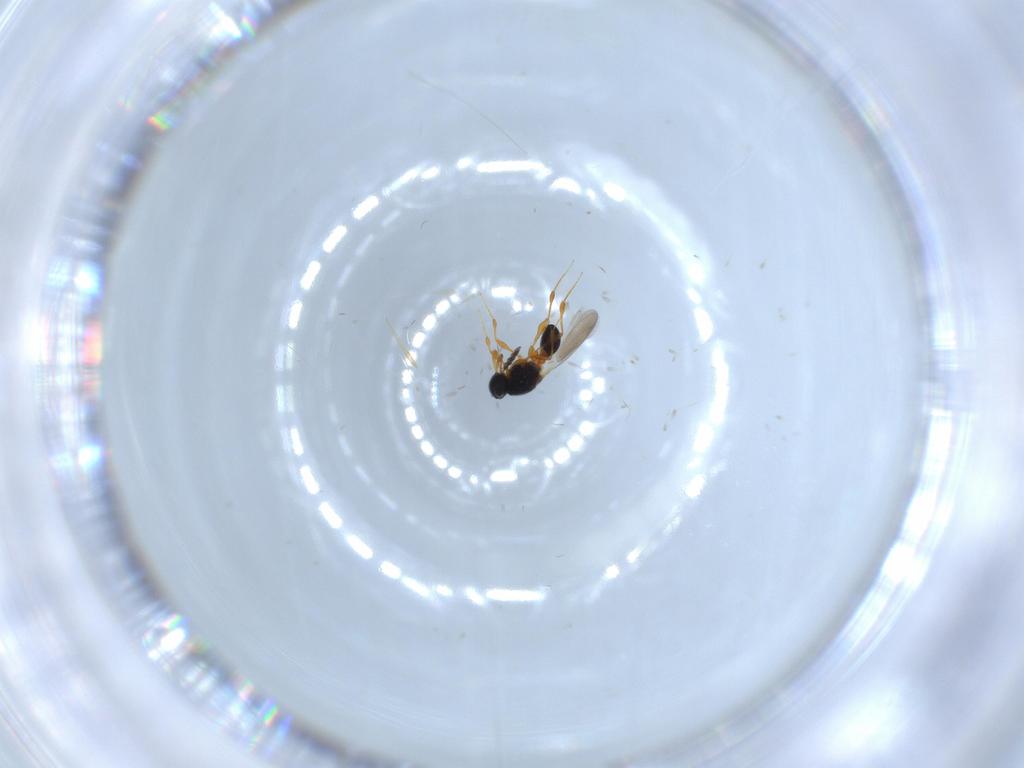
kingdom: Animalia
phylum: Arthropoda
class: Insecta
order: Hymenoptera
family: Platygastridae
